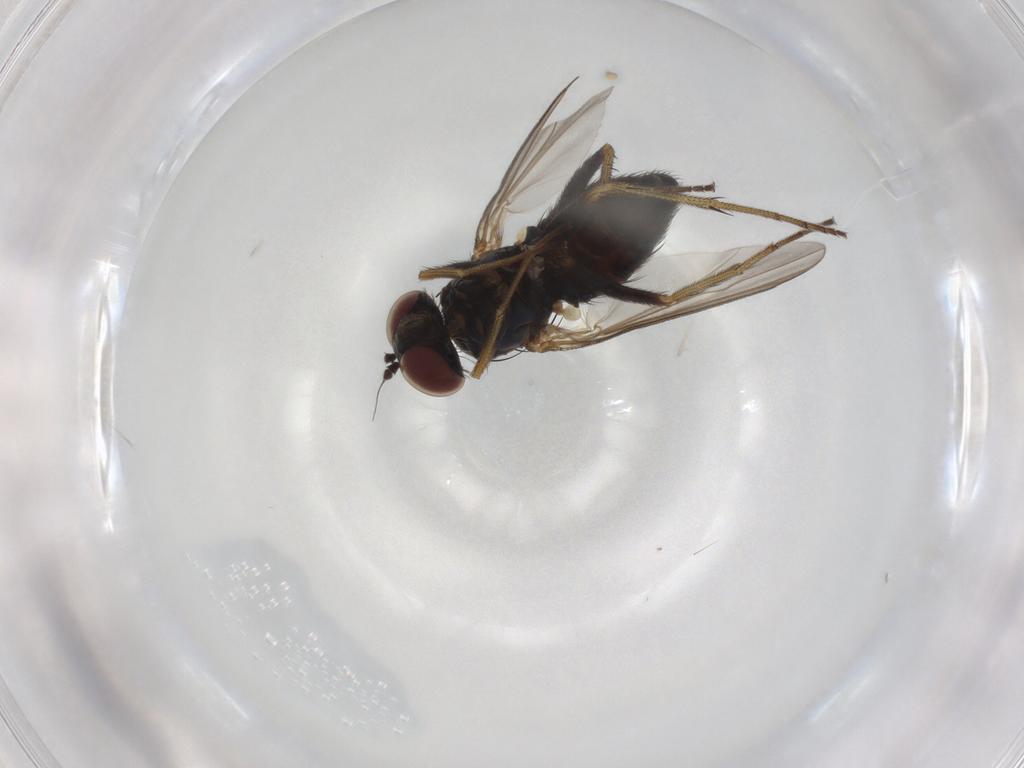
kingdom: Animalia
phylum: Arthropoda
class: Insecta
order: Diptera
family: Dolichopodidae
